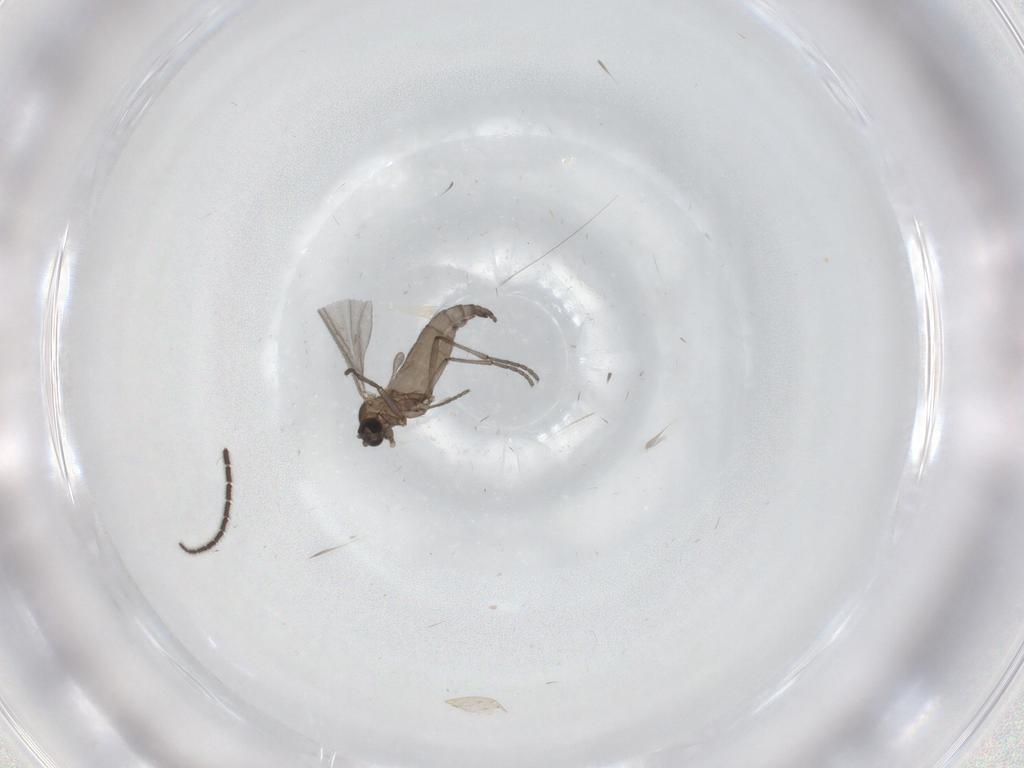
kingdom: Animalia
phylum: Arthropoda
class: Insecta
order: Diptera
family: Sciaridae
